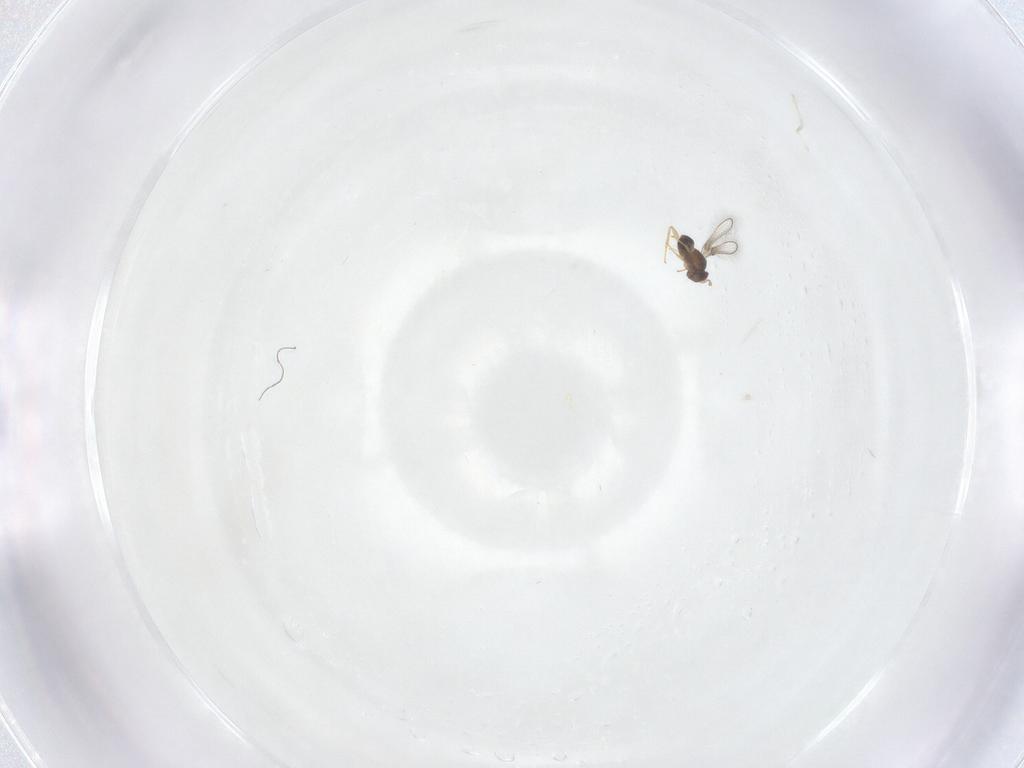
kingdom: Animalia
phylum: Arthropoda
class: Insecta
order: Hymenoptera
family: Mymaridae
